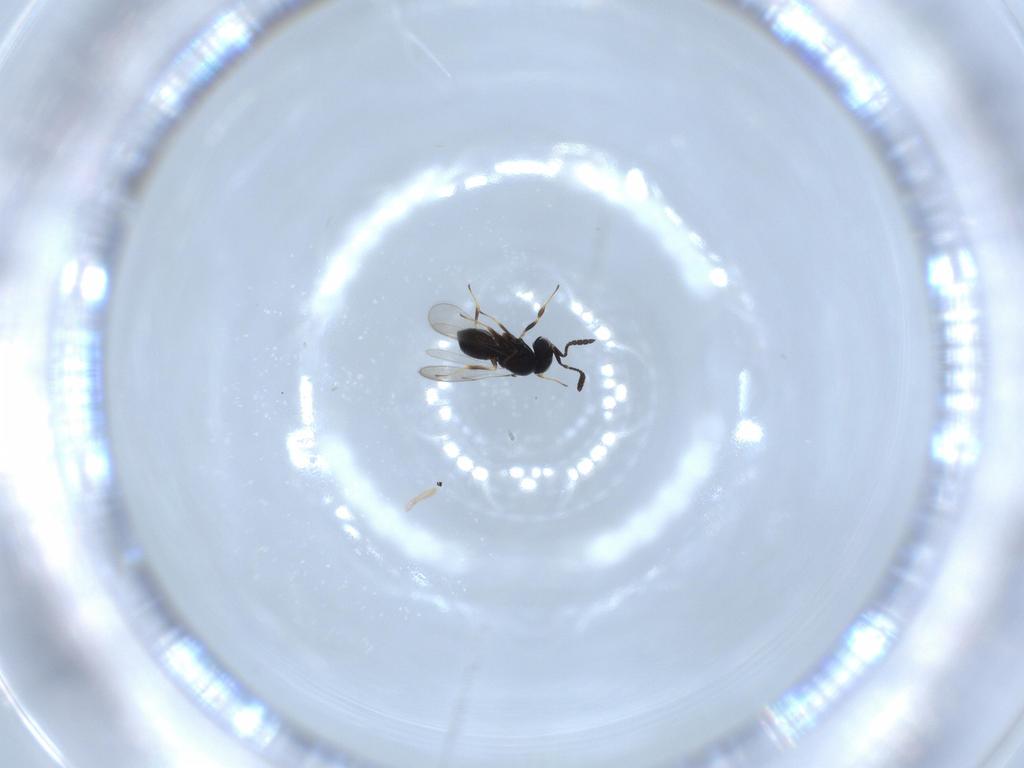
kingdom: Animalia
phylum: Arthropoda
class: Insecta
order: Hymenoptera
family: Scelionidae
